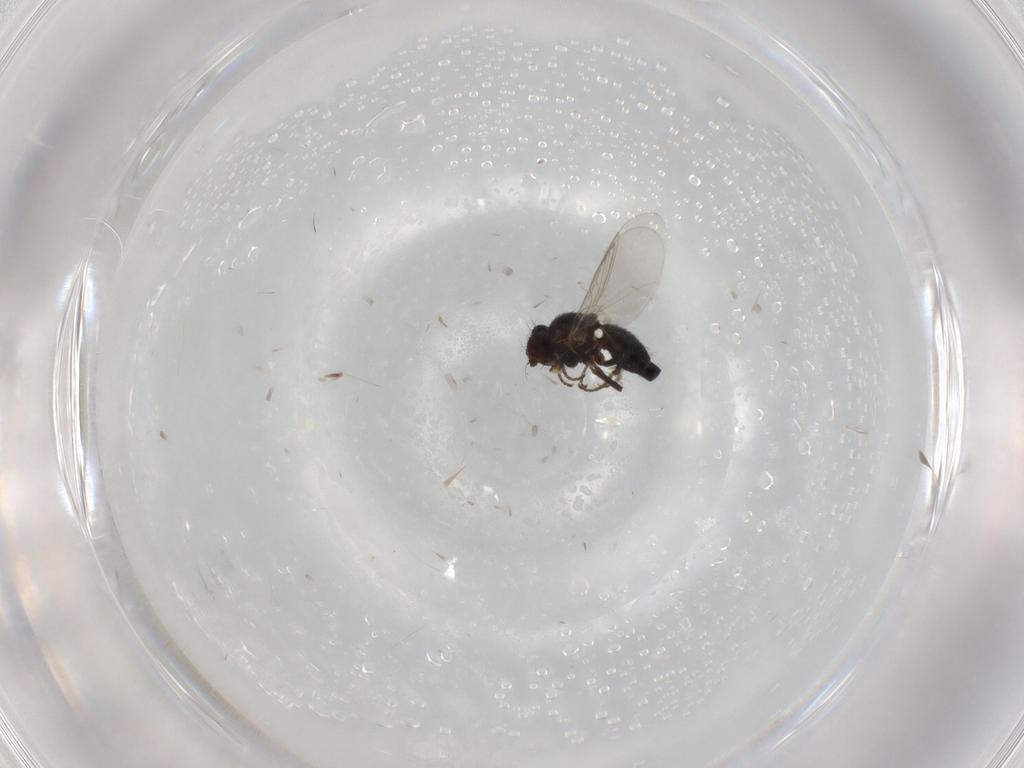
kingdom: Animalia
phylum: Arthropoda
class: Insecta
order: Diptera
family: Agromyzidae
